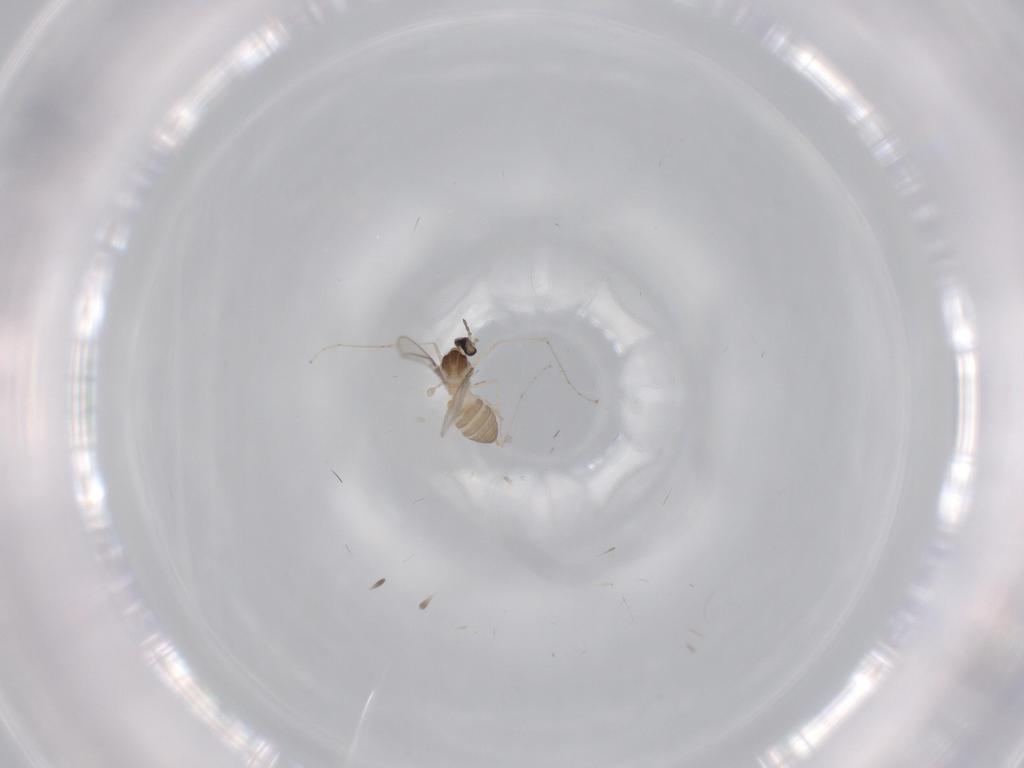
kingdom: Animalia
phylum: Arthropoda
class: Insecta
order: Diptera
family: Cecidomyiidae
